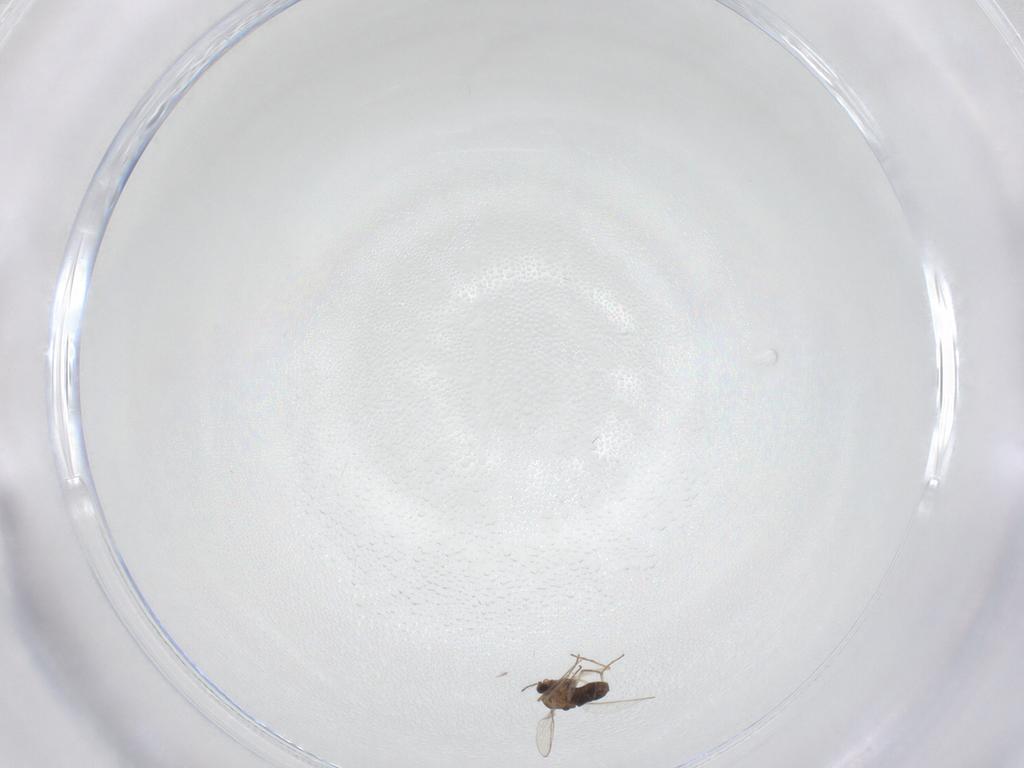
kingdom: Animalia
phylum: Arthropoda
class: Insecta
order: Diptera
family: Chironomidae
